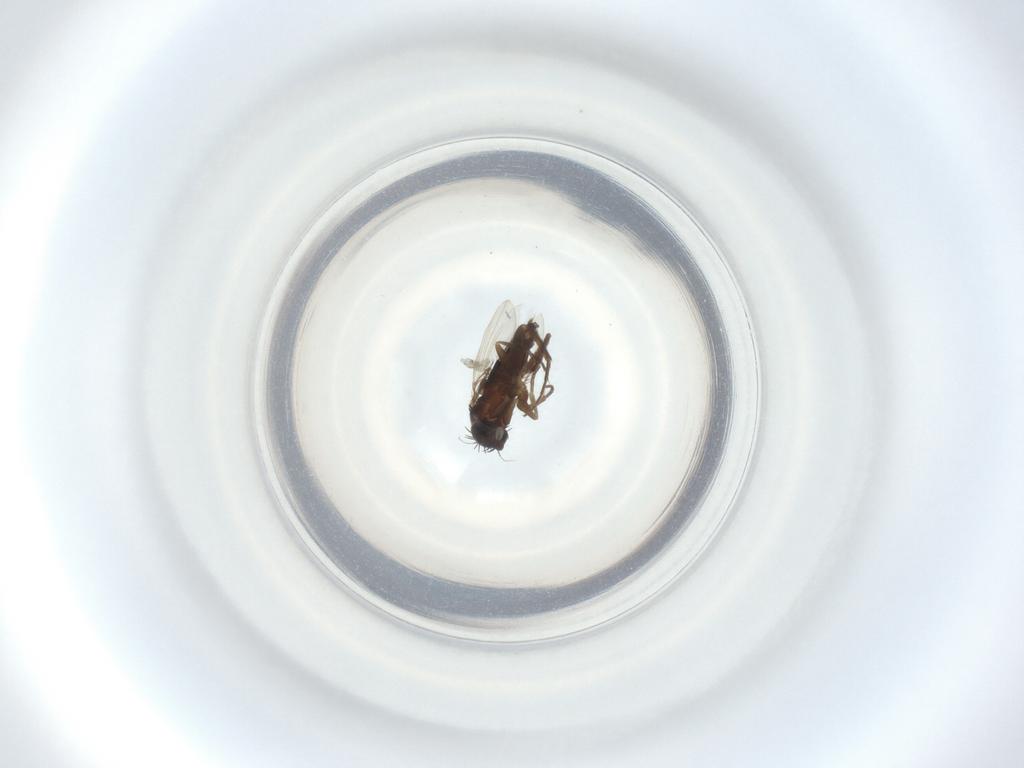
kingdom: Animalia
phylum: Arthropoda
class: Insecta
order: Diptera
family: Phoridae
